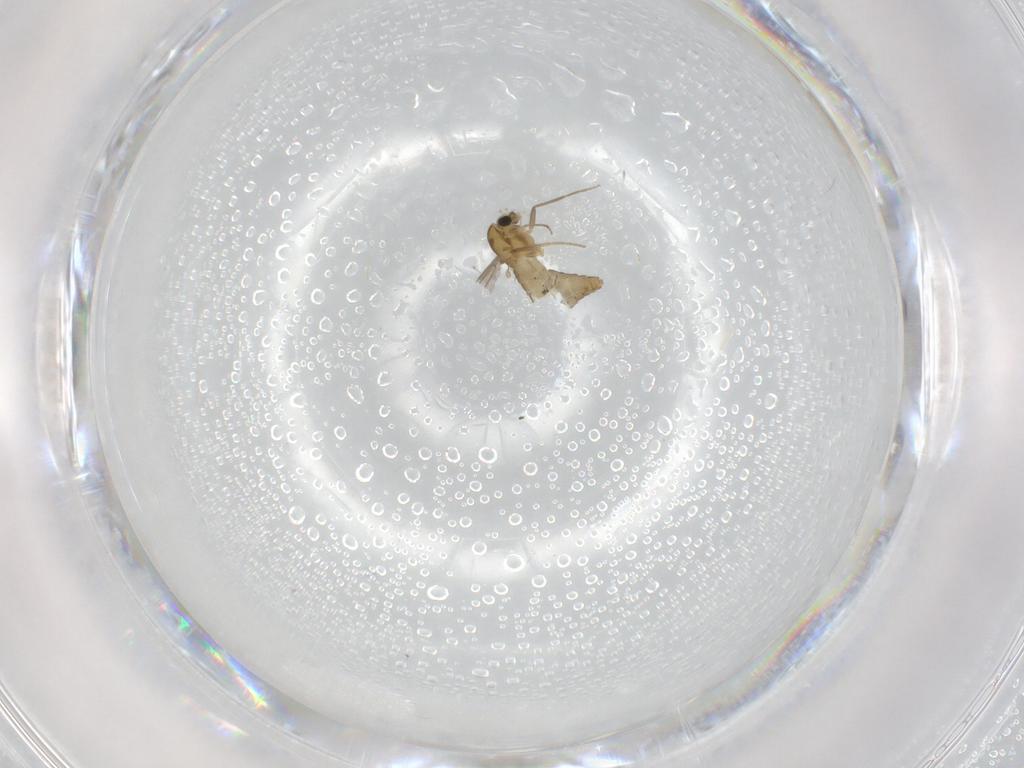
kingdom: Animalia
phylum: Arthropoda
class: Insecta
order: Diptera
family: Chironomidae
